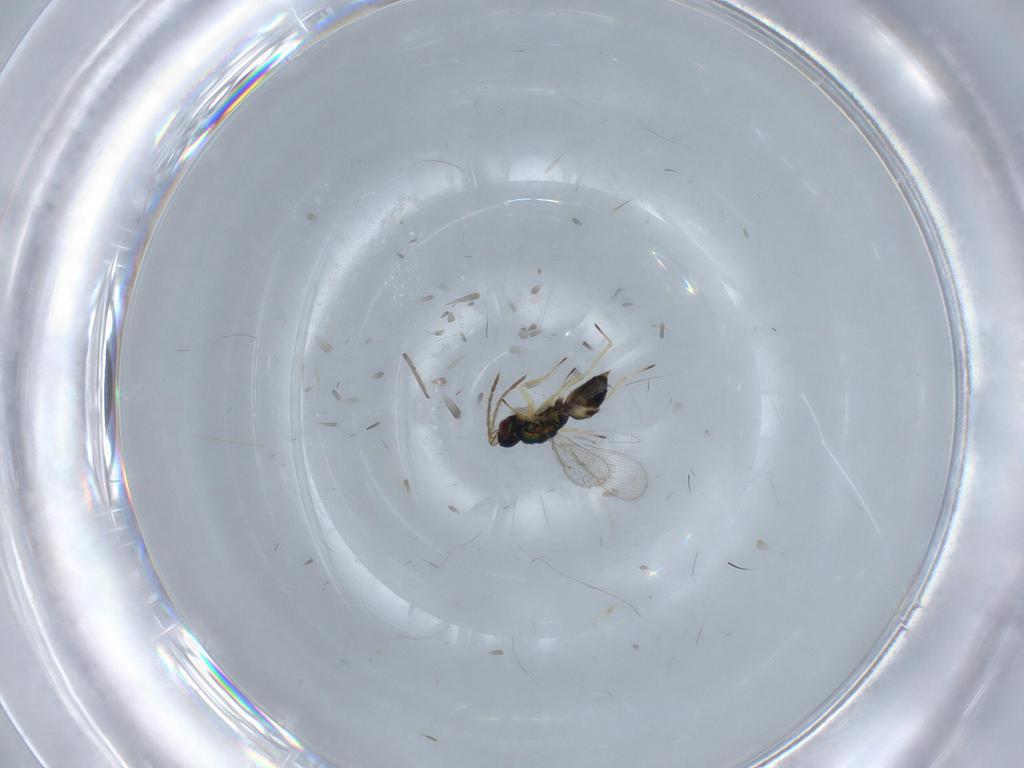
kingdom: Animalia
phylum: Arthropoda
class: Insecta
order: Hymenoptera
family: Eulophidae
